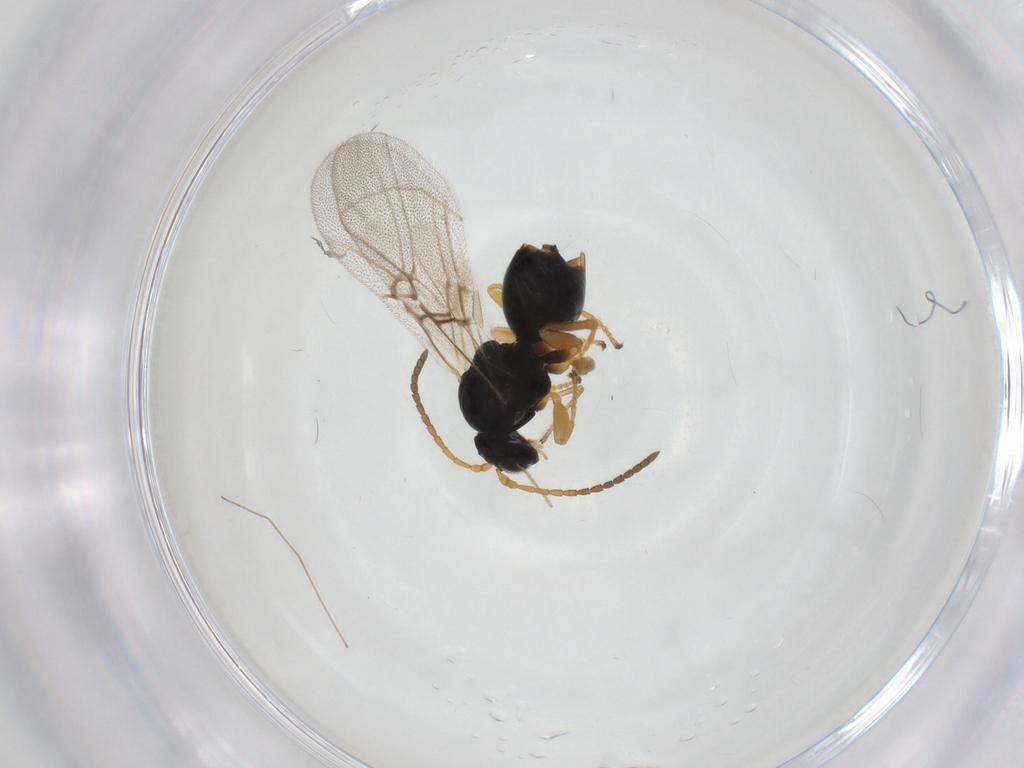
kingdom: Animalia
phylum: Arthropoda
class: Insecta
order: Hymenoptera
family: Cynipidae
